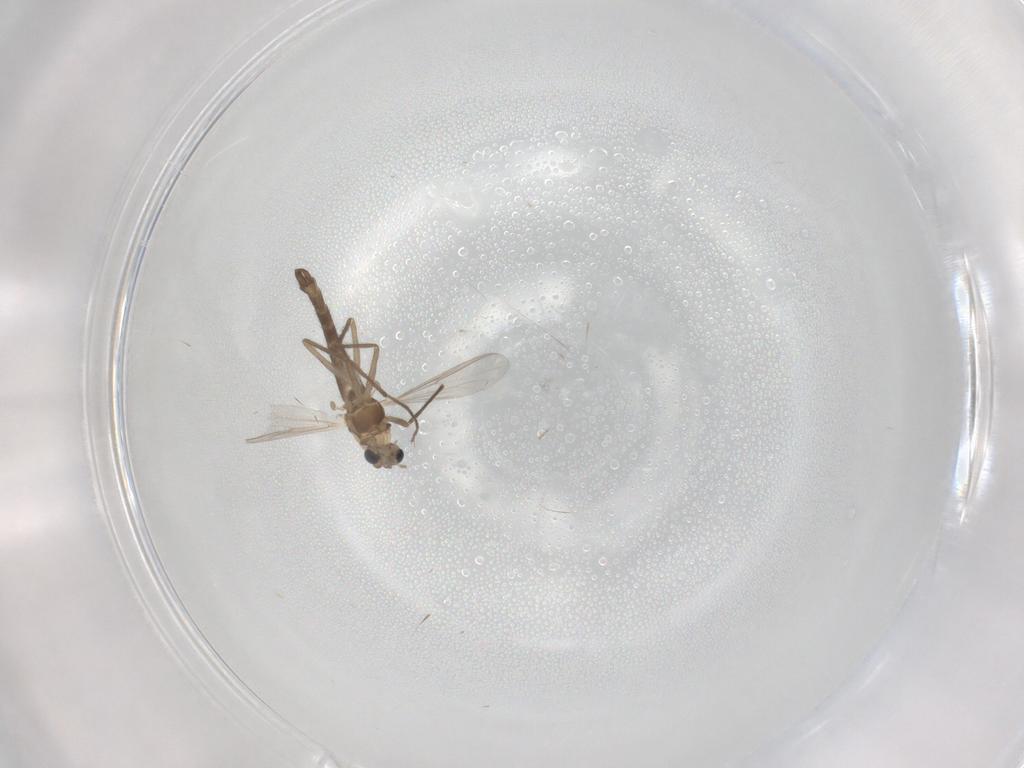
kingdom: Animalia
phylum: Arthropoda
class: Insecta
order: Diptera
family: Chironomidae
